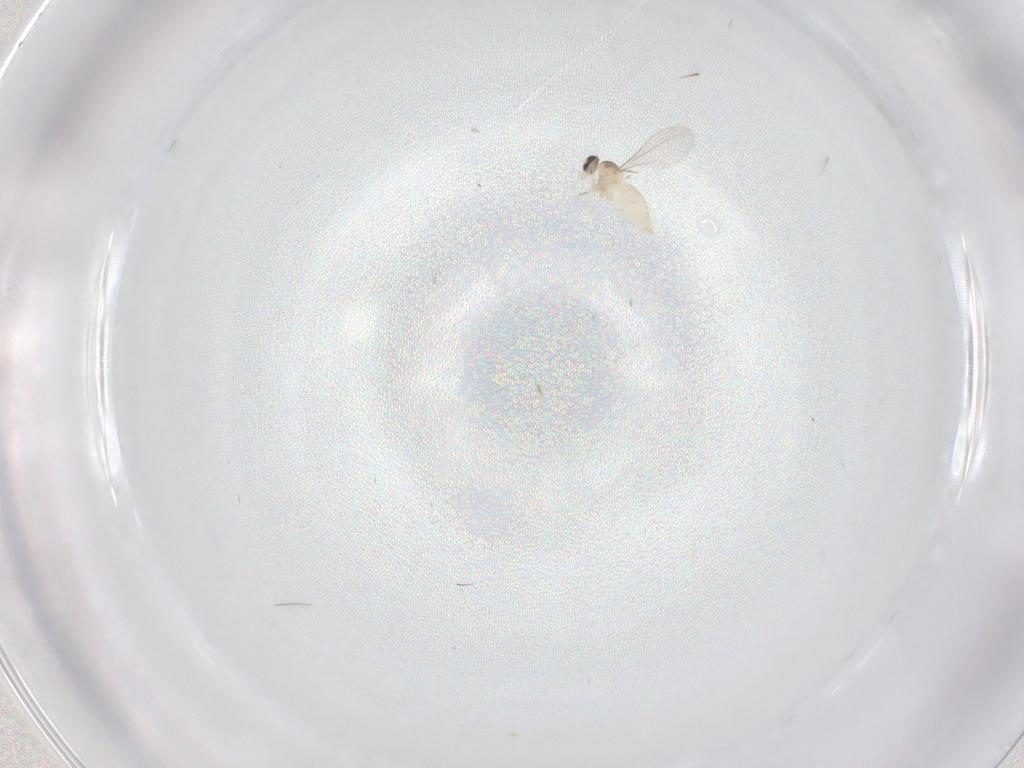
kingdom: Animalia
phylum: Arthropoda
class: Insecta
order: Diptera
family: Cecidomyiidae
